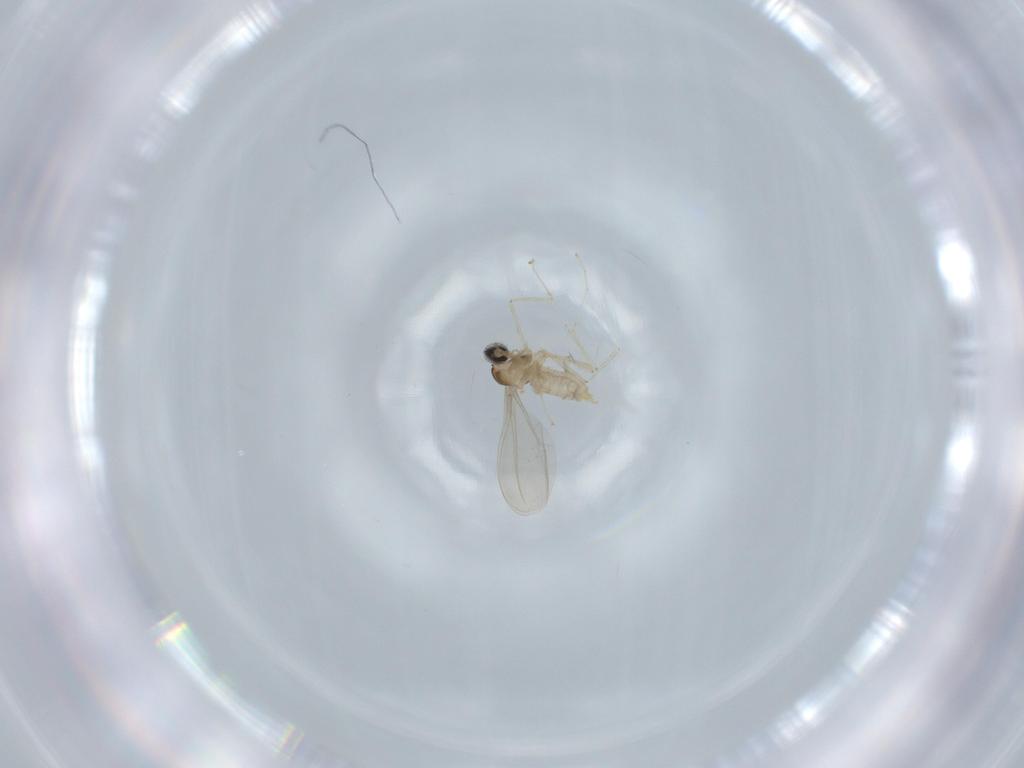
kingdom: Animalia
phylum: Arthropoda
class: Insecta
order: Diptera
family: Cecidomyiidae
